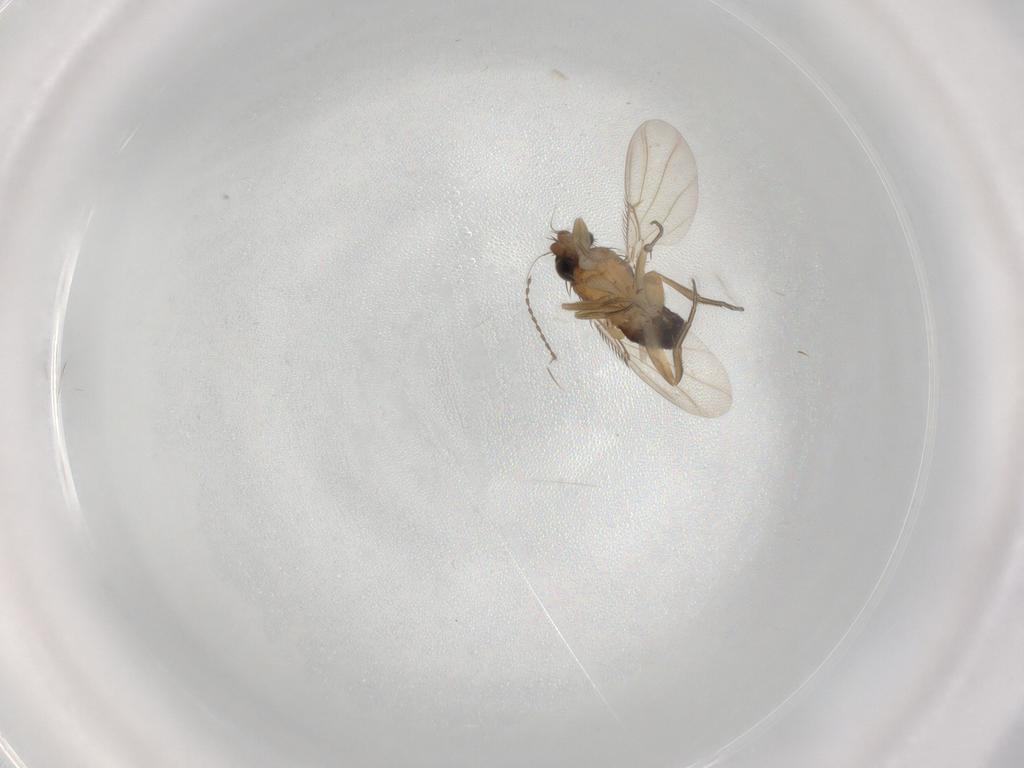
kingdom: Animalia
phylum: Arthropoda
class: Insecta
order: Diptera
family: Phoridae
